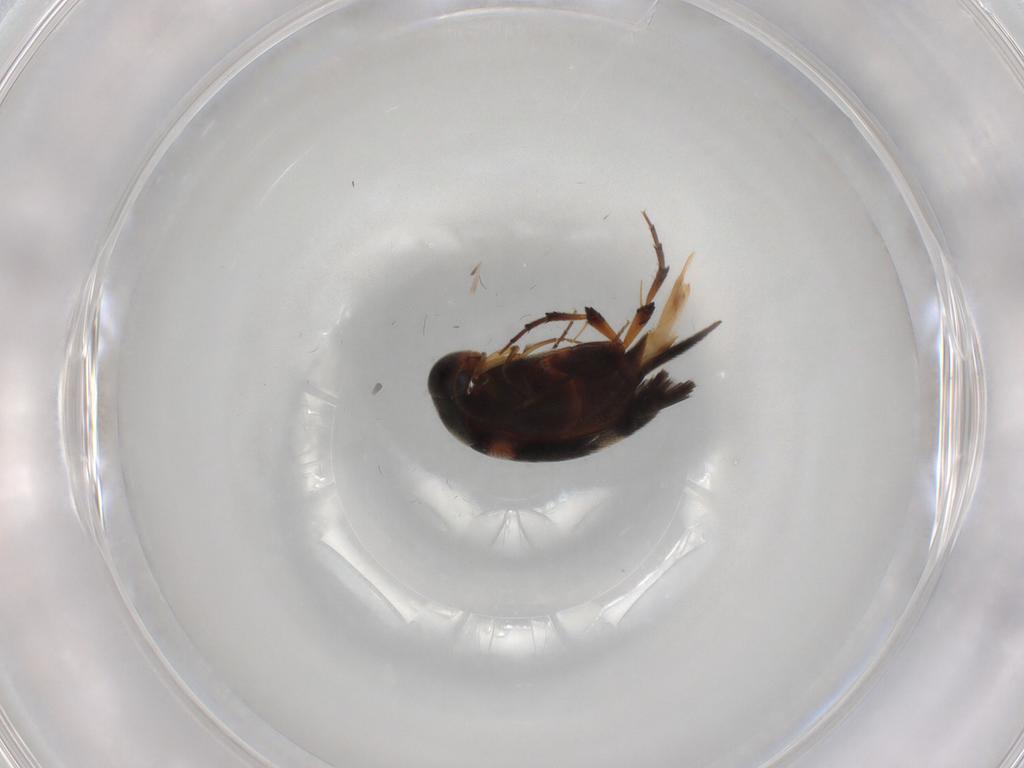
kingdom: Animalia
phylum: Arthropoda
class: Insecta
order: Coleoptera
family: Mordellidae
